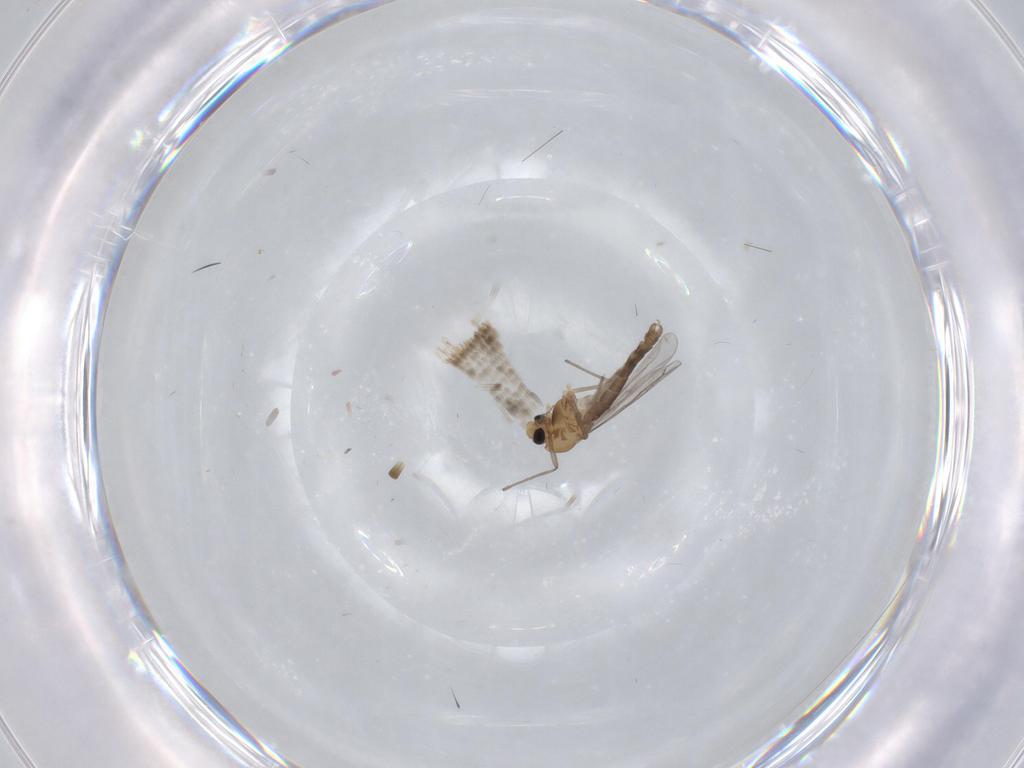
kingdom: Animalia
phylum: Arthropoda
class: Insecta
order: Diptera
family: Chironomidae
